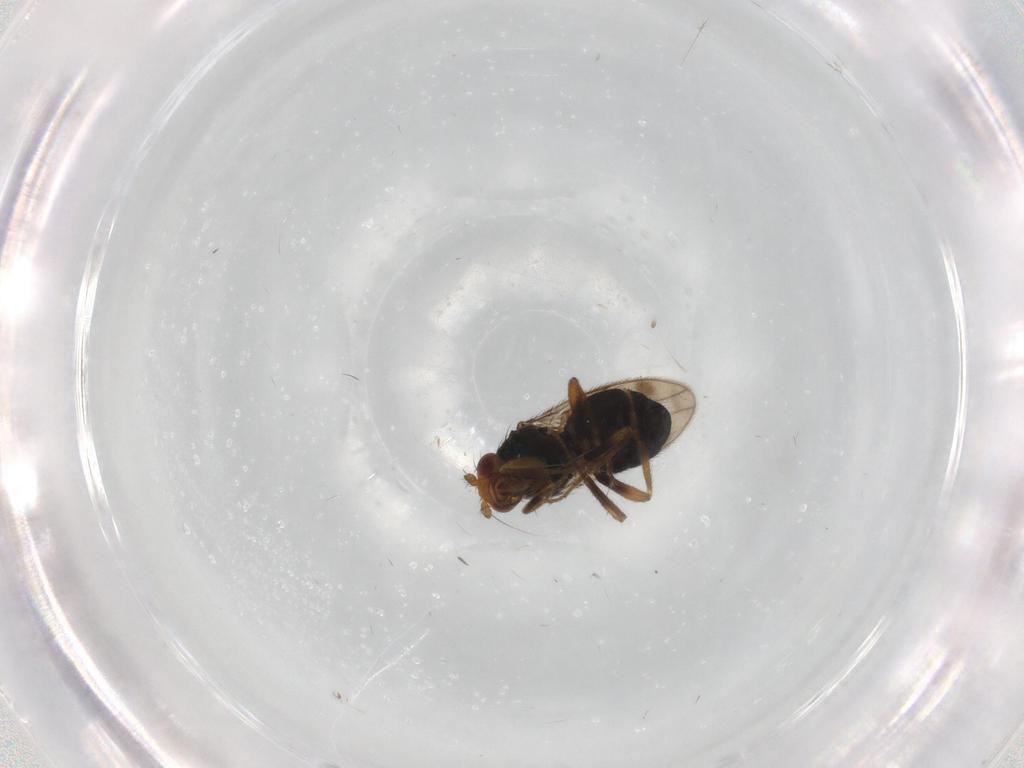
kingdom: Animalia
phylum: Arthropoda
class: Insecta
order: Diptera
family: Sphaeroceridae
